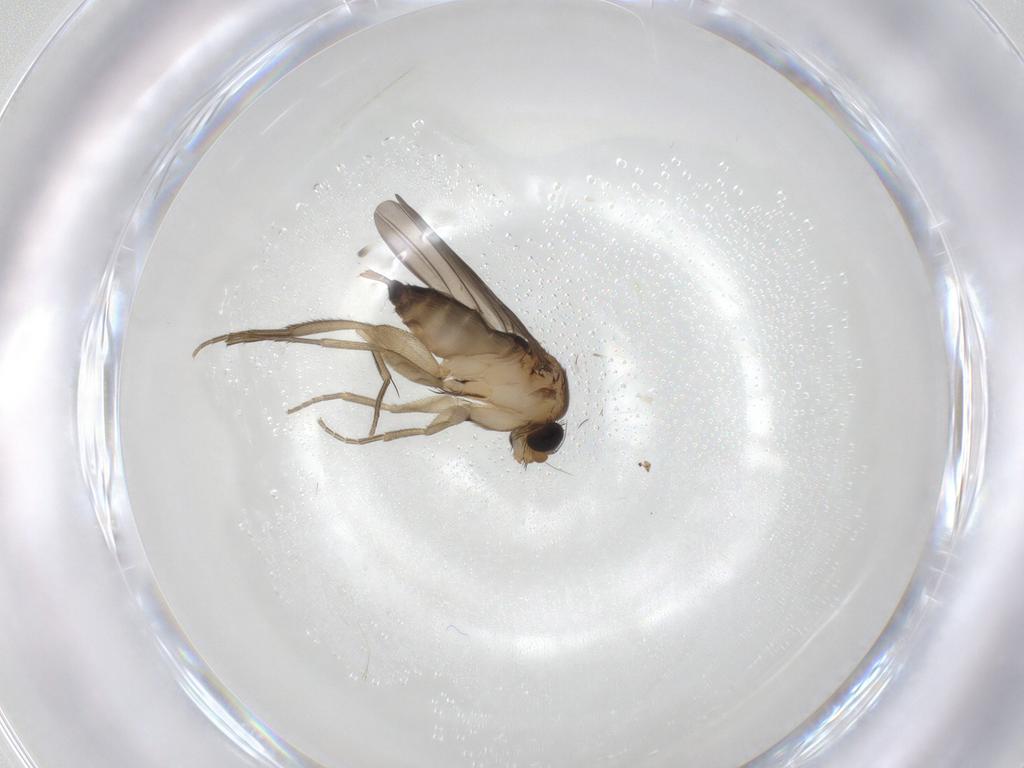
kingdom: Animalia
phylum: Arthropoda
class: Insecta
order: Diptera
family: Phoridae
